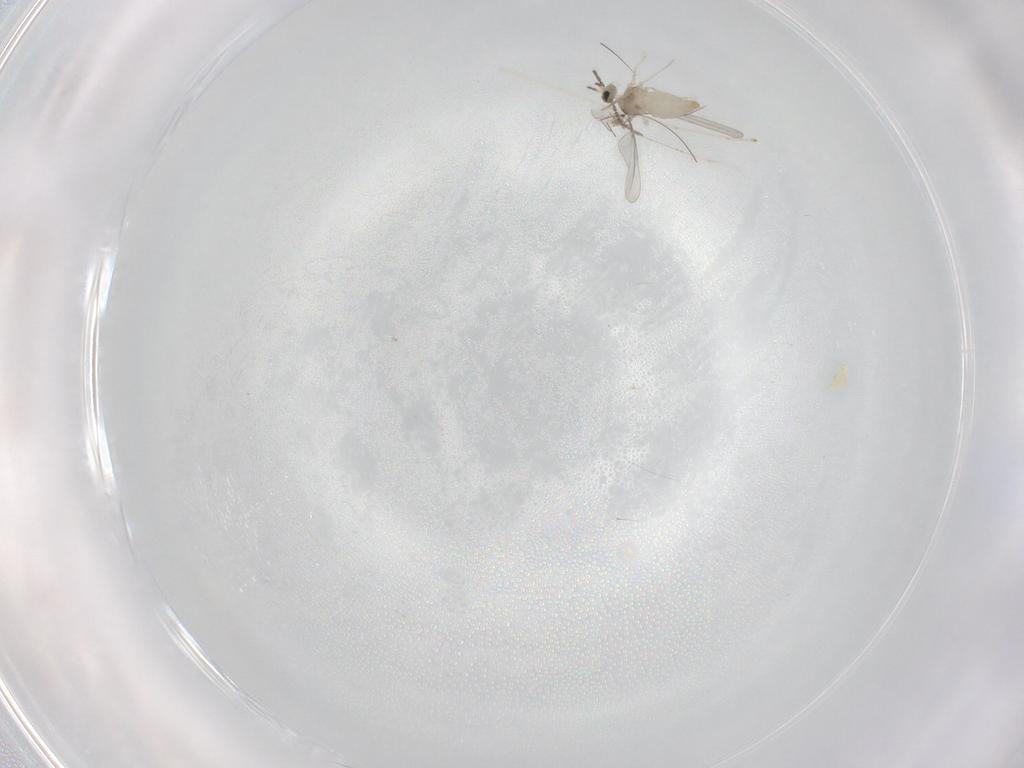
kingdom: Animalia
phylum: Arthropoda
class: Insecta
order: Diptera
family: Cecidomyiidae
